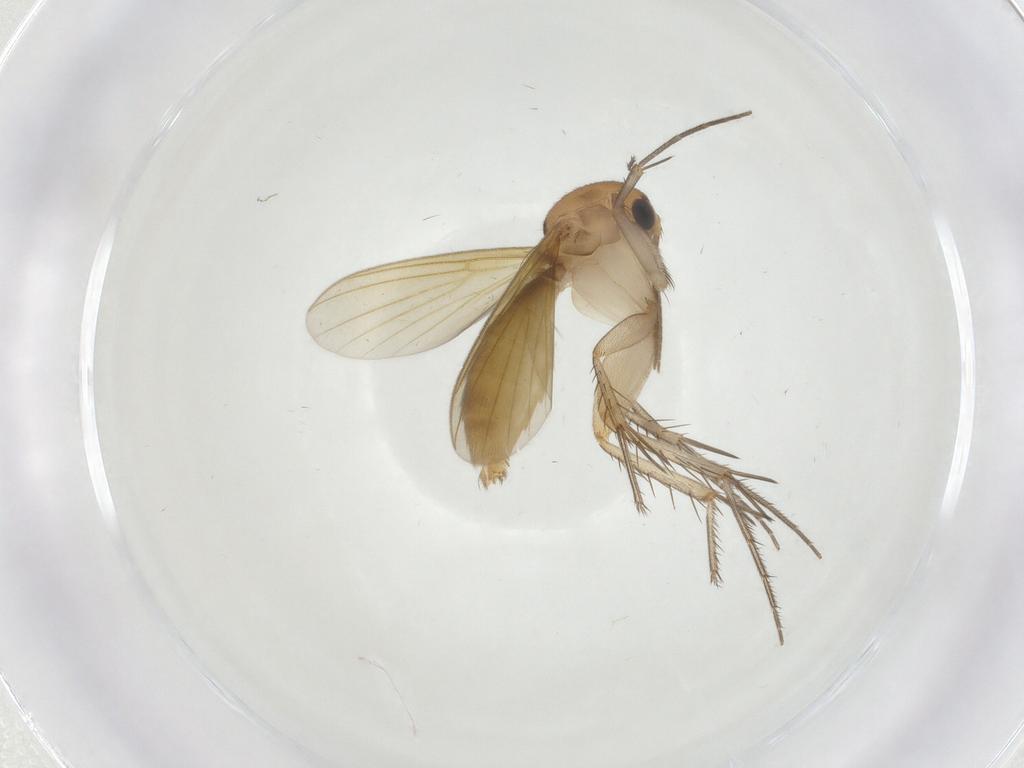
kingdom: Animalia
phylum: Arthropoda
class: Insecta
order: Diptera
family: Mycetophilidae
